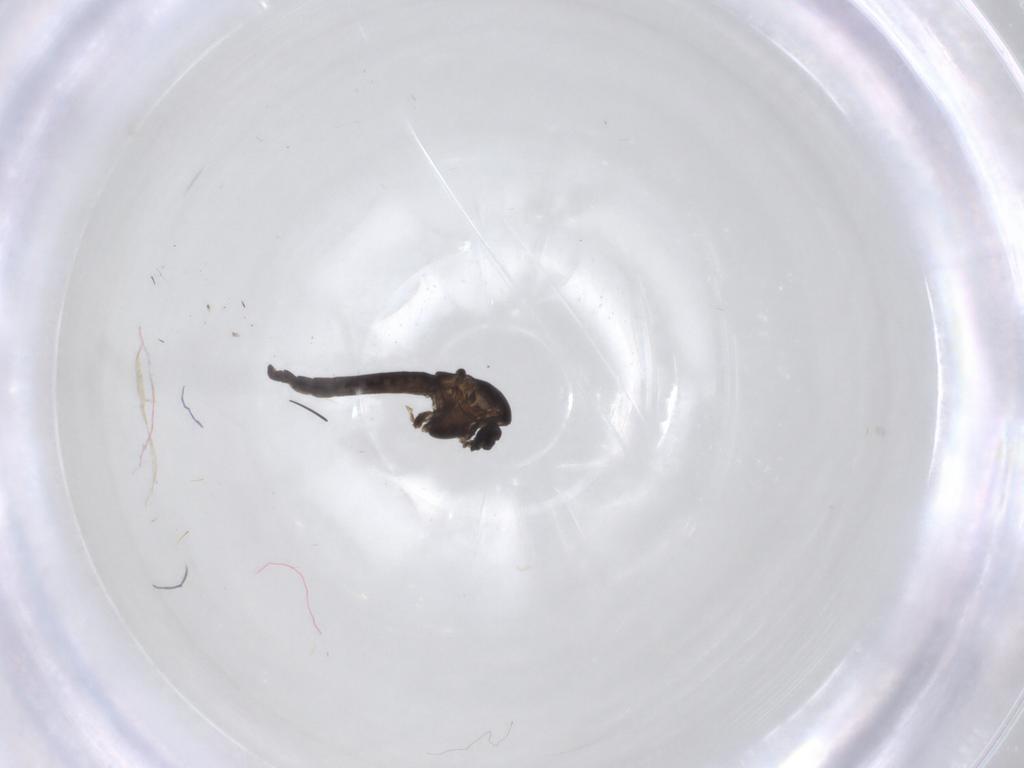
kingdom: Animalia
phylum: Arthropoda
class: Insecta
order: Diptera
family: Chironomidae
